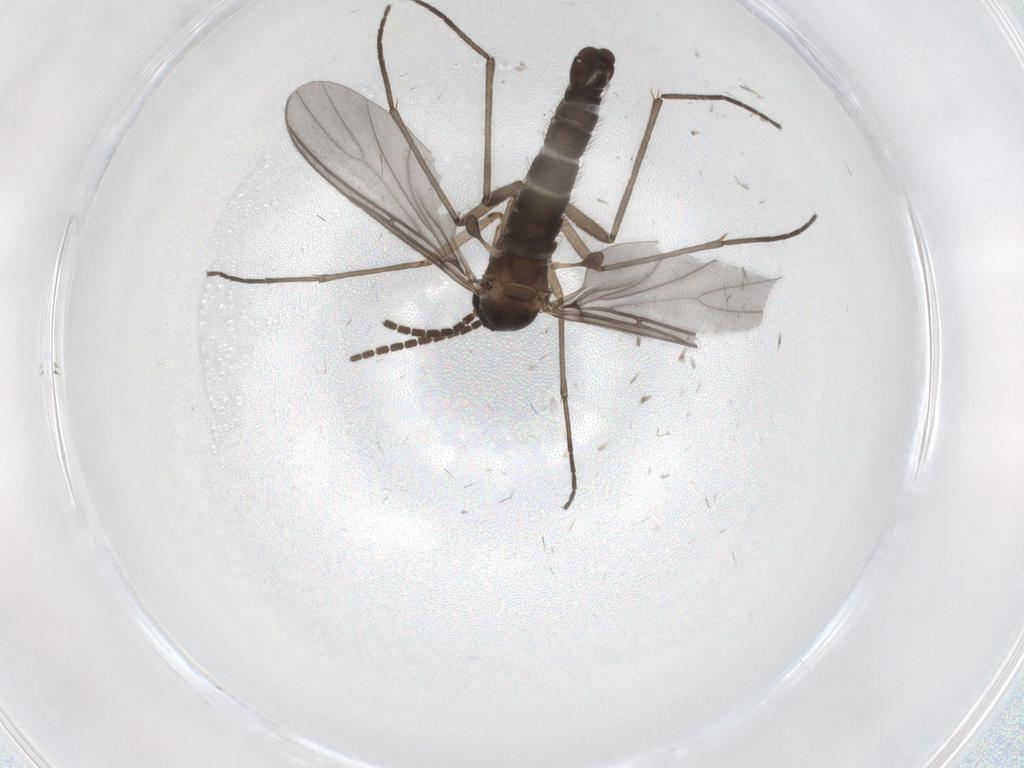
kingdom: Animalia
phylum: Arthropoda
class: Insecta
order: Diptera
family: Sciaridae
